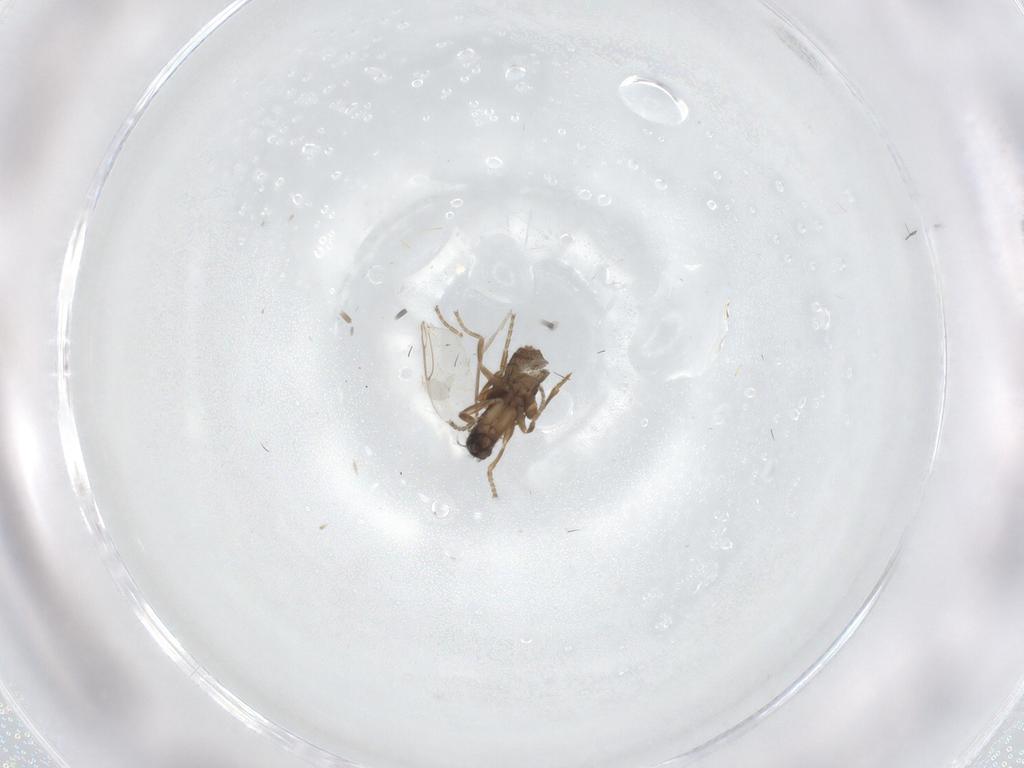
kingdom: Animalia
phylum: Arthropoda
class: Insecta
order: Diptera
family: Phoridae
